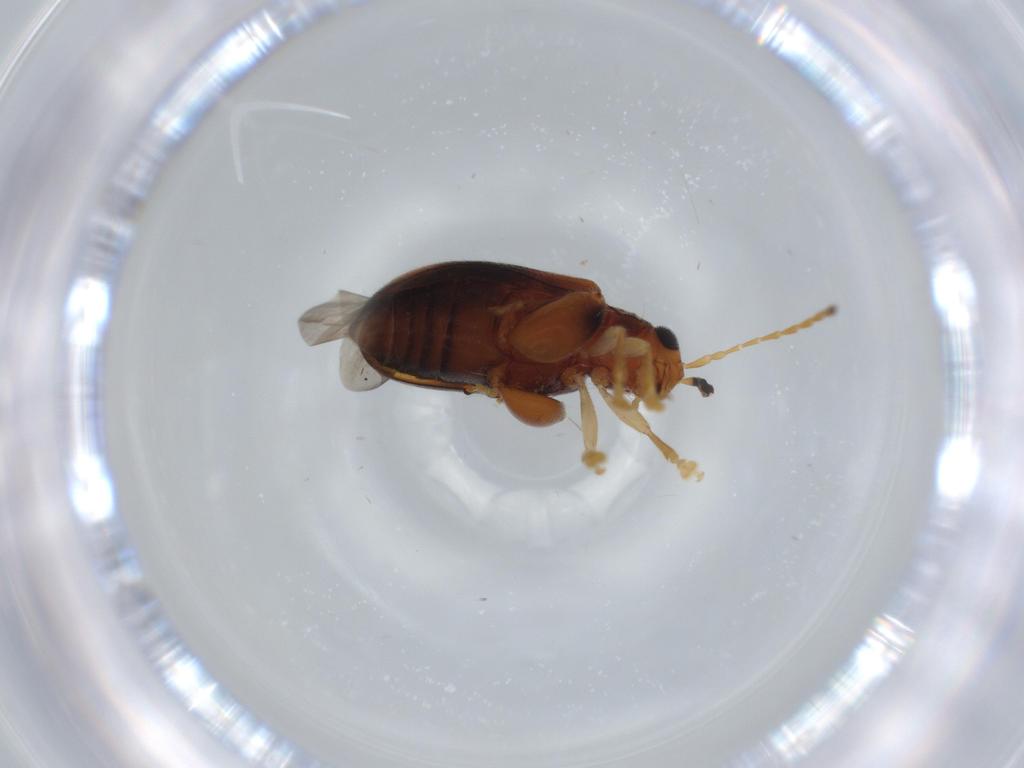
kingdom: Animalia
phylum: Arthropoda
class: Insecta
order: Coleoptera
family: Chrysomelidae
